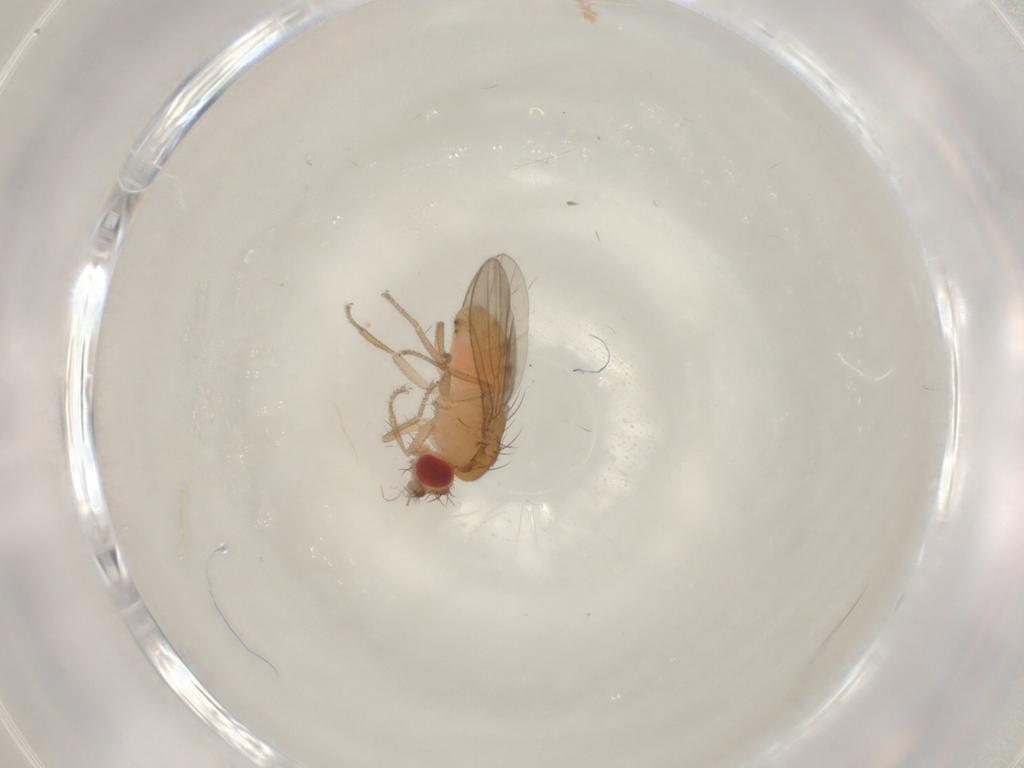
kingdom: Animalia
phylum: Arthropoda
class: Insecta
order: Diptera
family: Drosophilidae
